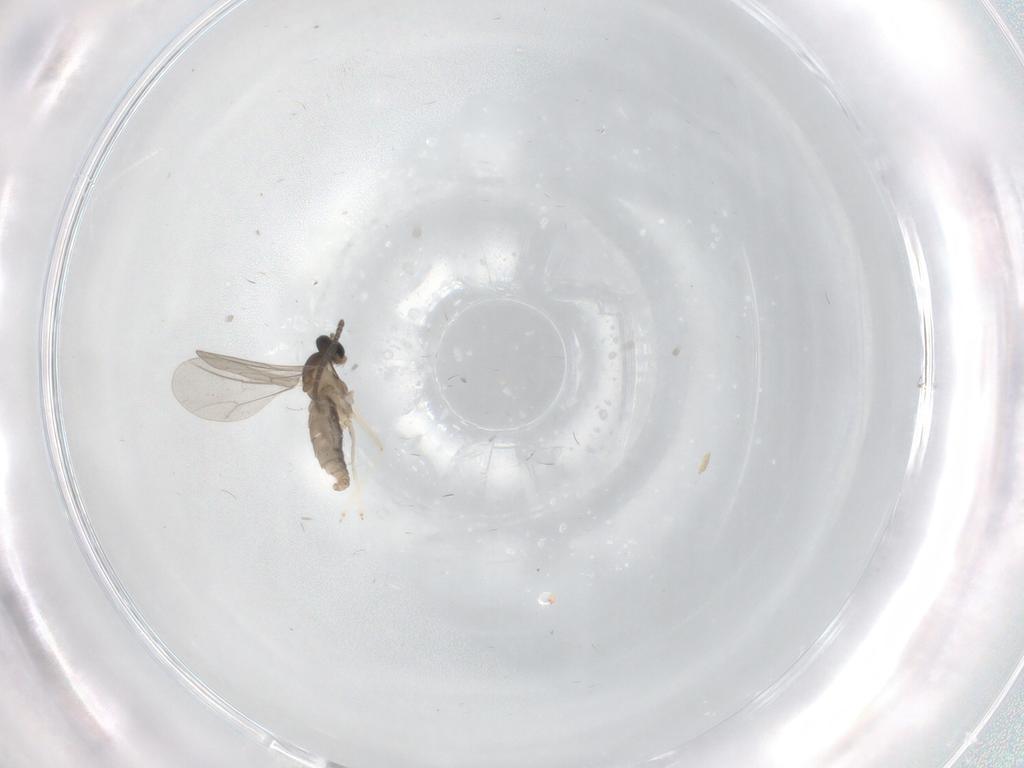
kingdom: Animalia
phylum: Arthropoda
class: Insecta
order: Diptera
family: Sciaridae
